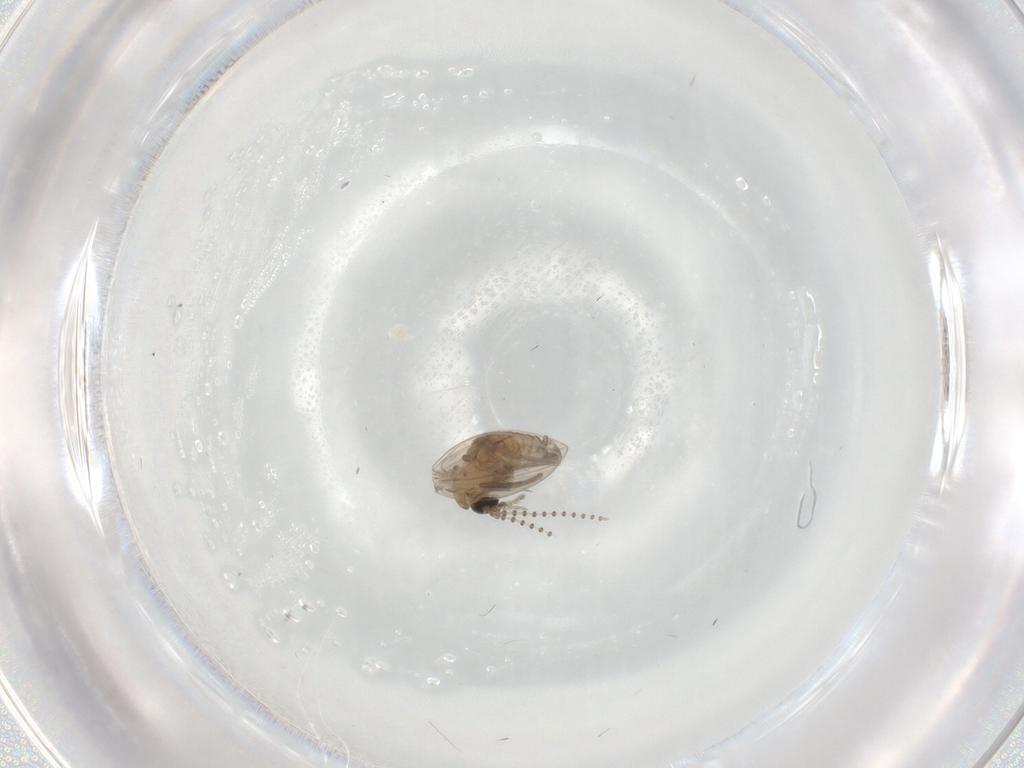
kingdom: Animalia
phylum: Arthropoda
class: Insecta
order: Diptera
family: Psychodidae
